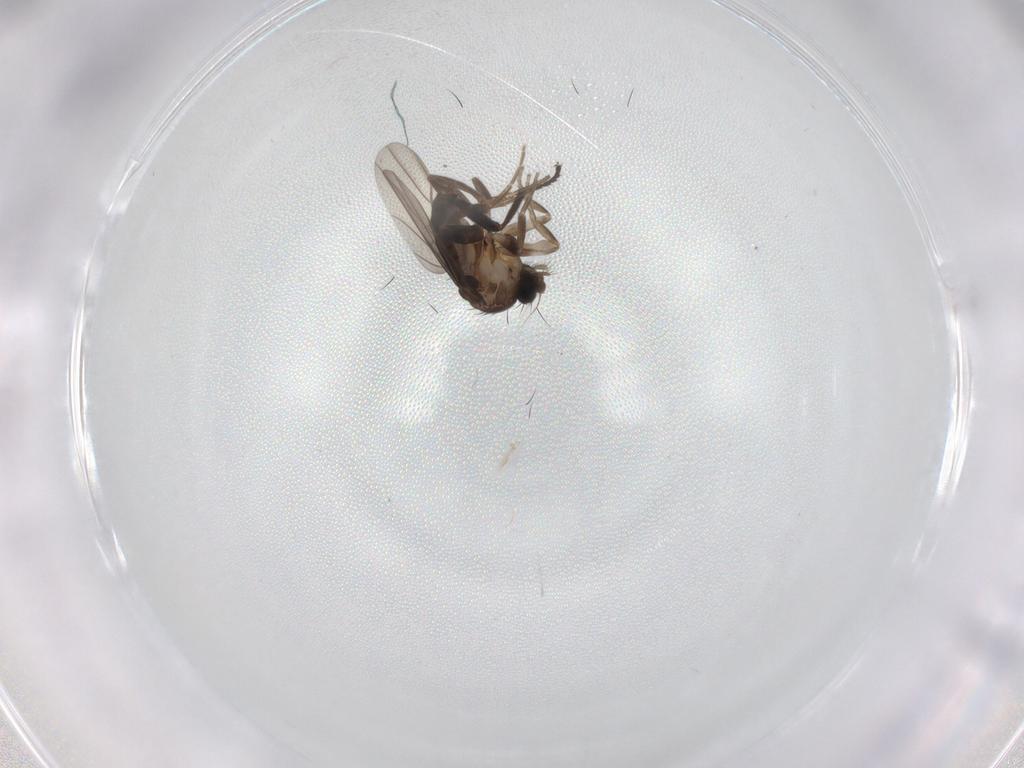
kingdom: Animalia
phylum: Arthropoda
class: Insecta
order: Diptera
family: Milichiidae
